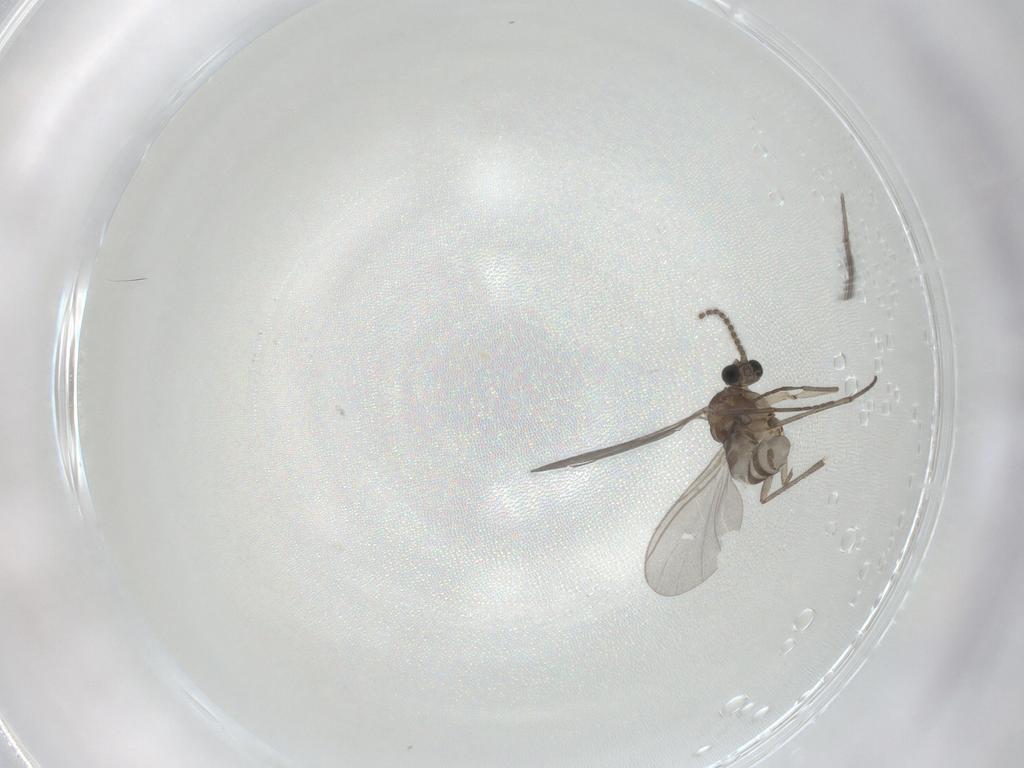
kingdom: Animalia
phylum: Arthropoda
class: Insecta
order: Diptera
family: Sciaridae
